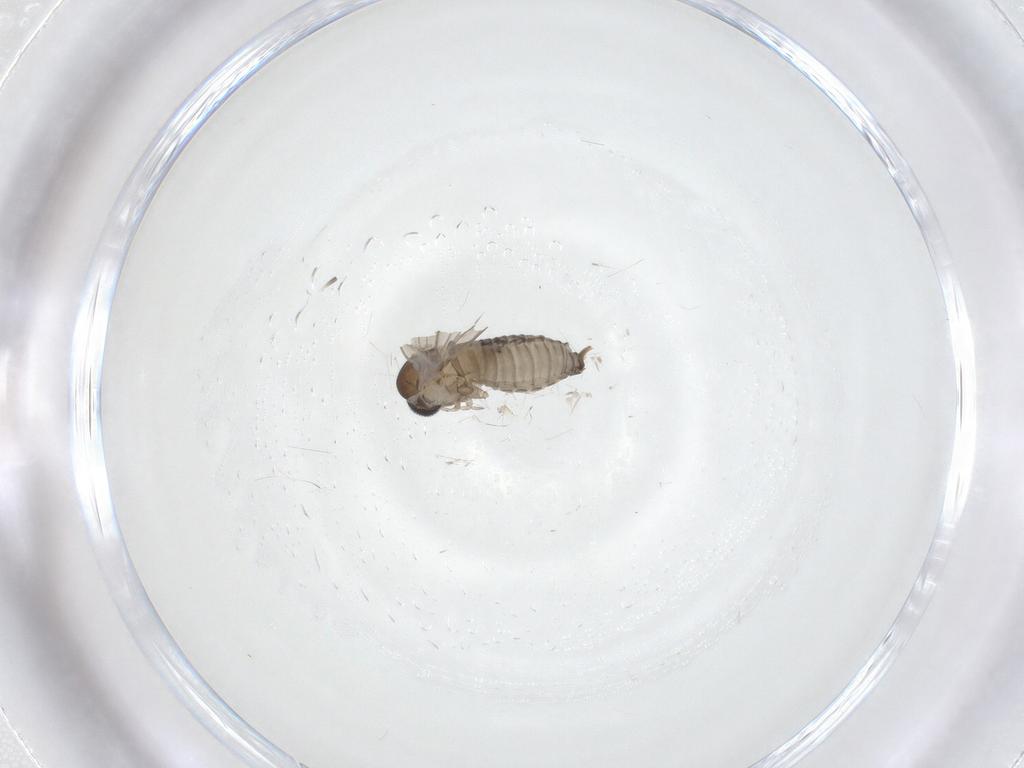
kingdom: Animalia
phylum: Arthropoda
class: Insecta
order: Diptera
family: Psychodidae
